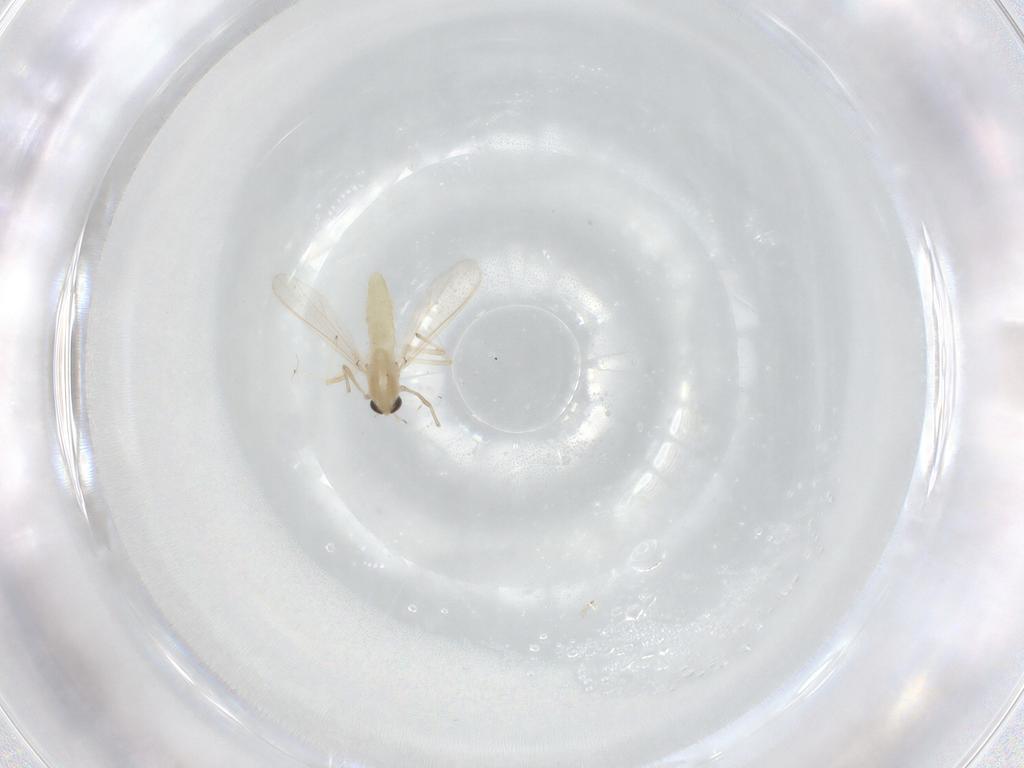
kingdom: Animalia
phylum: Arthropoda
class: Insecta
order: Diptera
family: Chironomidae
